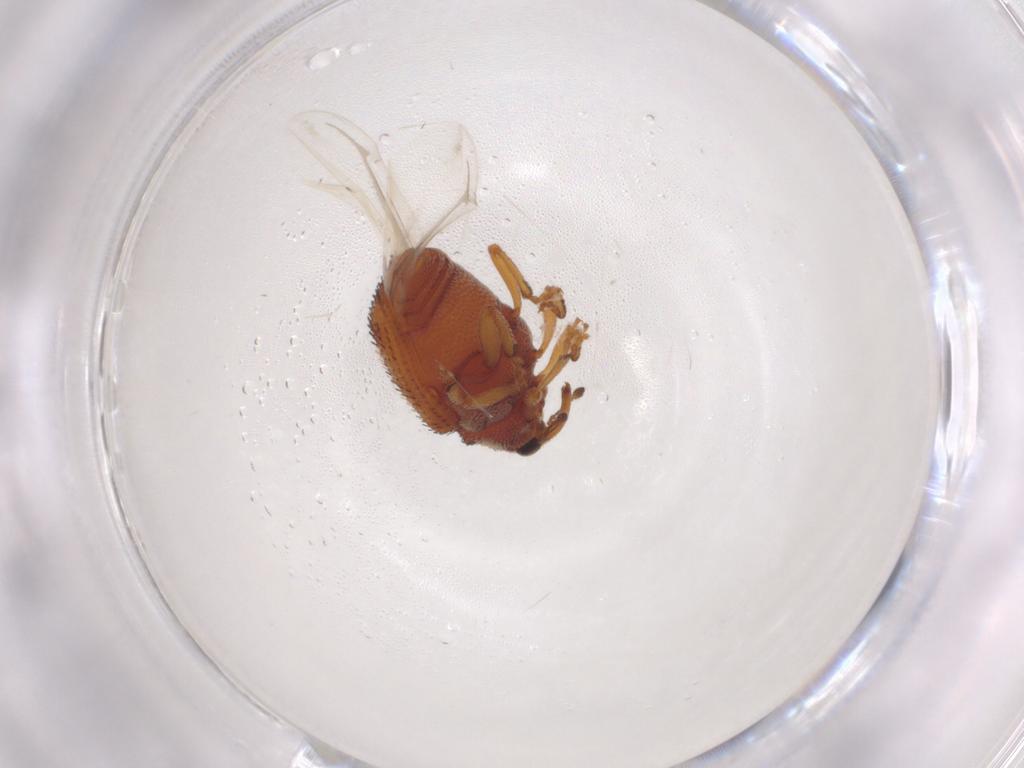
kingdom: Animalia
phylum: Arthropoda
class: Insecta
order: Coleoptera
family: Curculionidae
